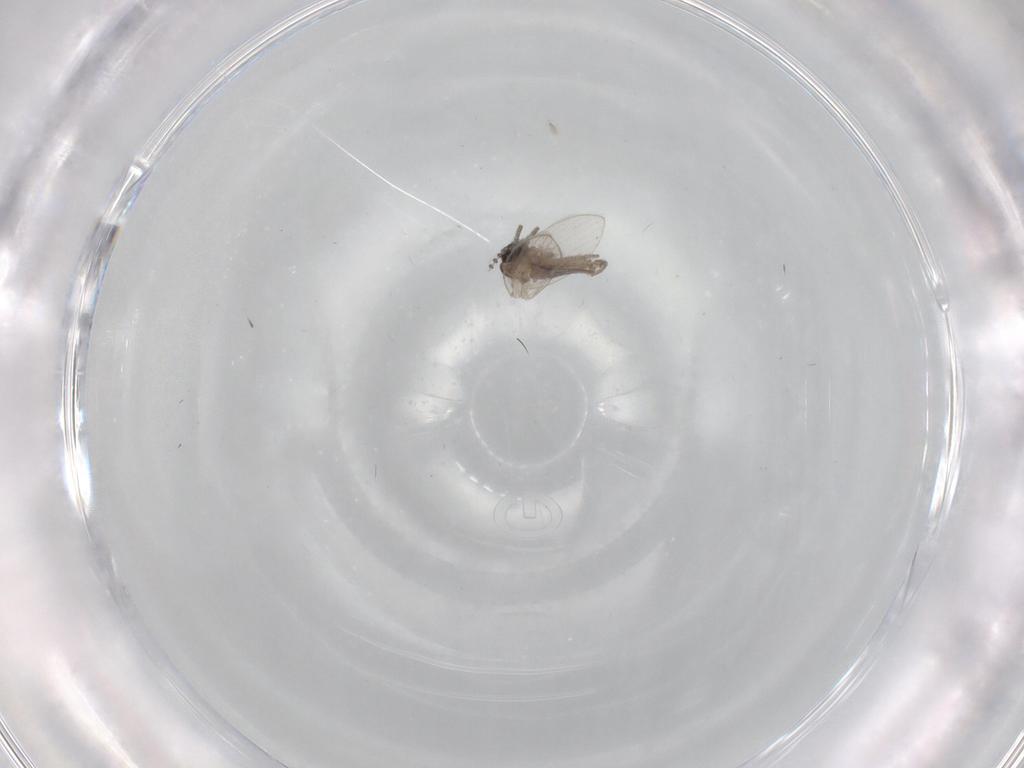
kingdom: Animalia
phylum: Arthropoda
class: Insecta
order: Diptera
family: Psychodidae
